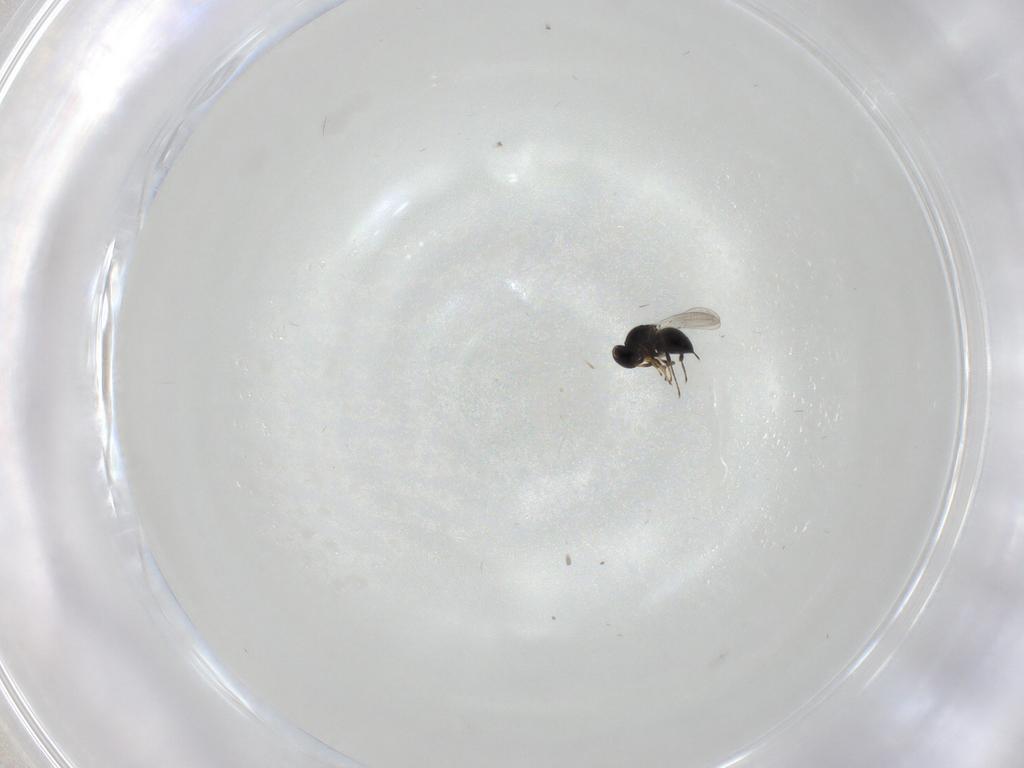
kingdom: Animalia
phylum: Arthropoda
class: Insecta
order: Hymenoptera
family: Platygastridae
